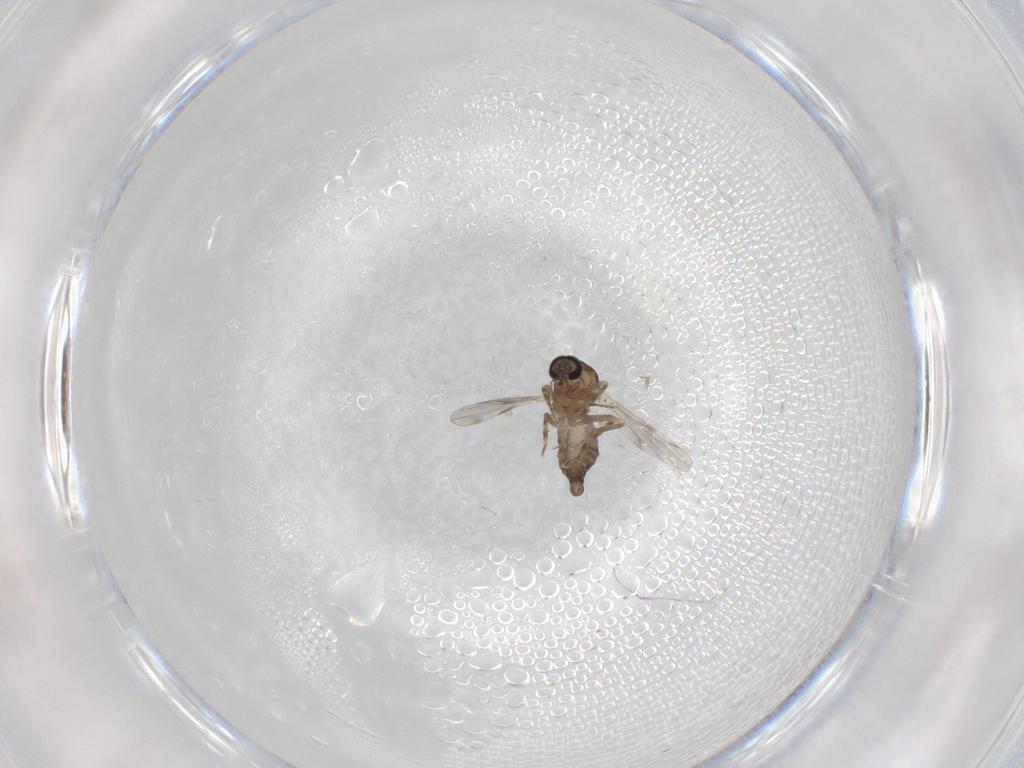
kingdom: Animalia
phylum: Arthropoda
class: Insecta
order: Diptera
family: Ceratopogonidae
